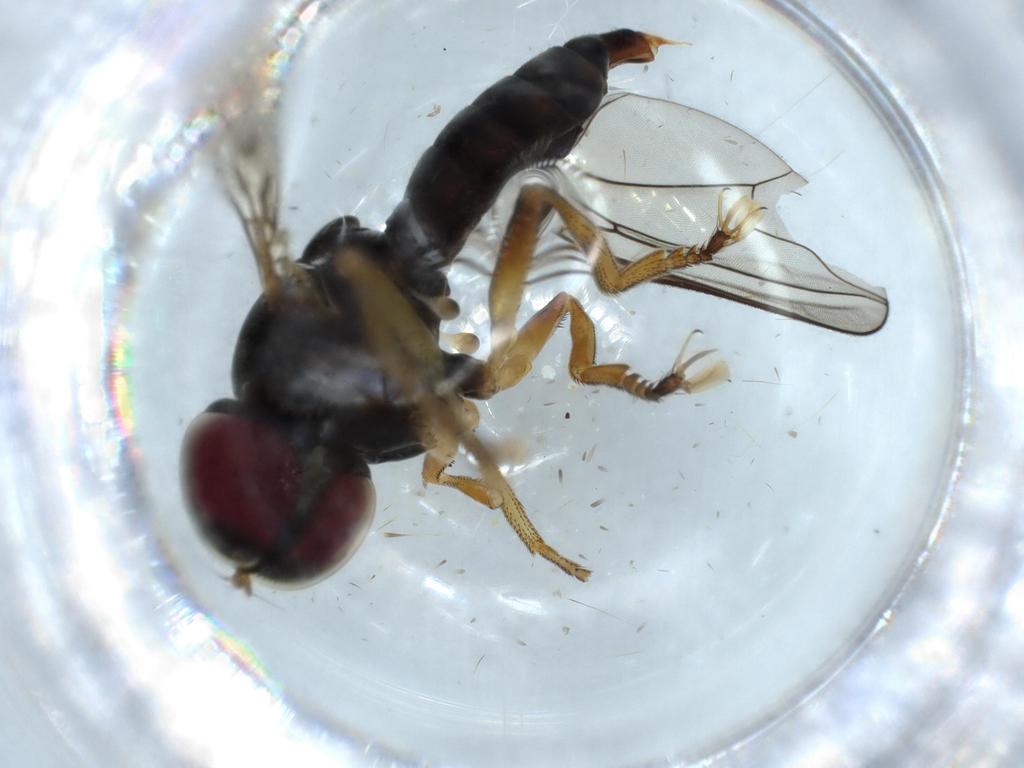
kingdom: Animalia
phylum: Arthropoda
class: Insecta
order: Diptera
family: Pipunculidae
